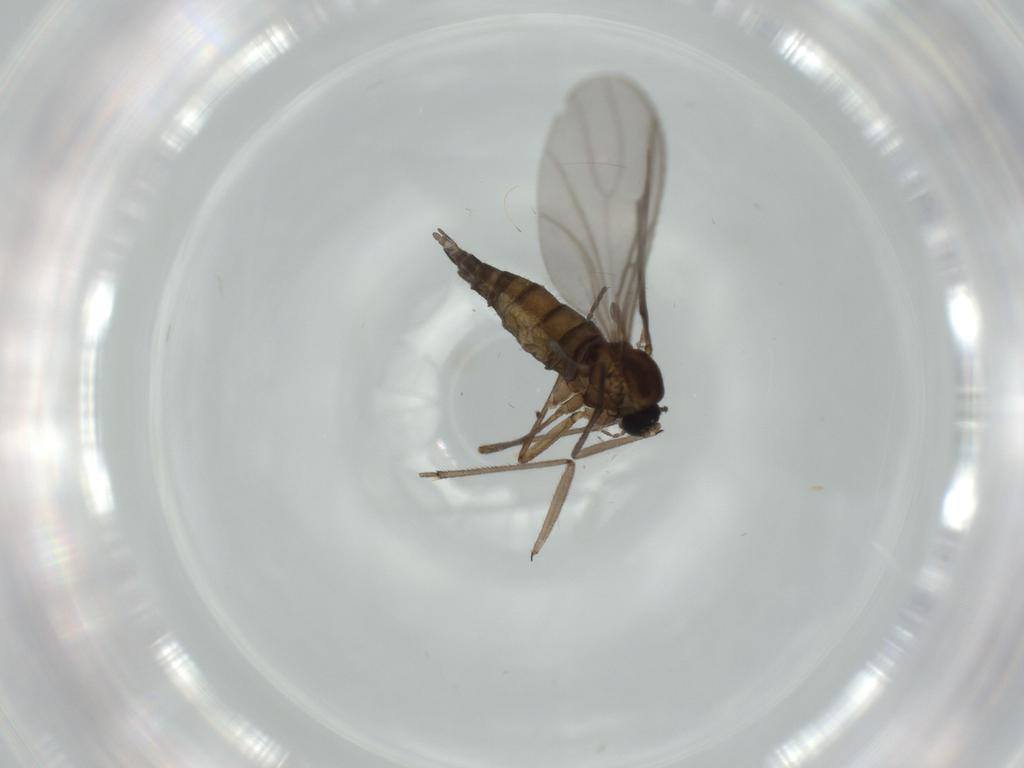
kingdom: Animalia
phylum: Arthropoda
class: Insecta
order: Diptera
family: Sciaridae
